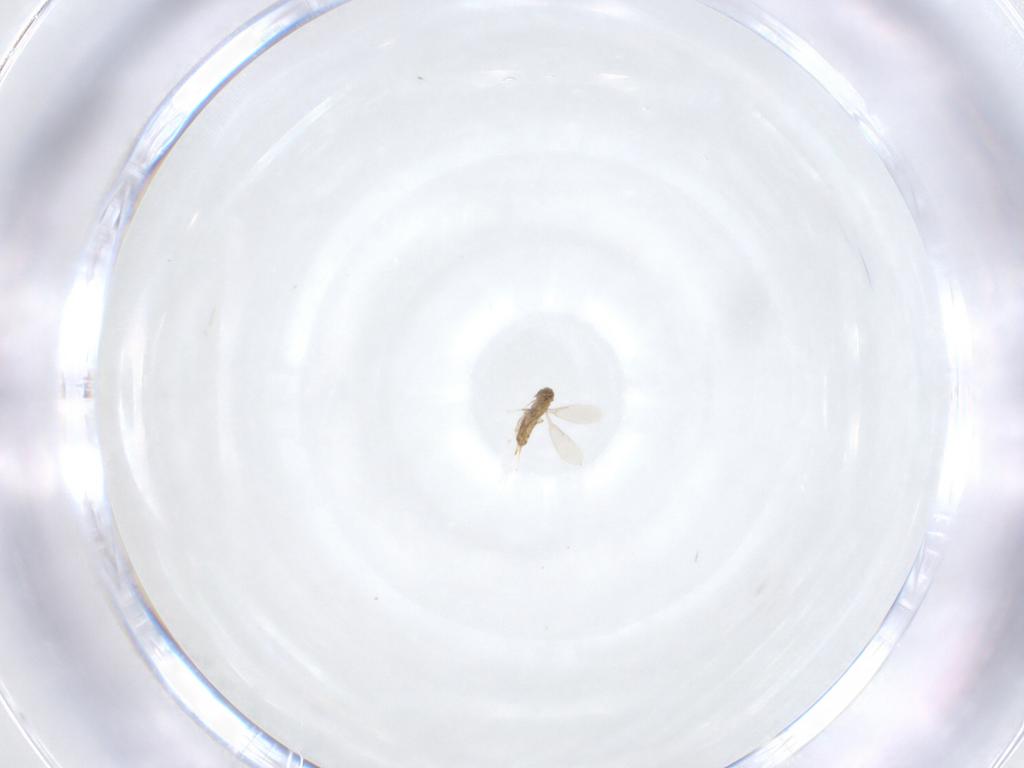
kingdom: Animalia
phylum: Arthropoda
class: Insecta
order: Hymenoptera
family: Aphelinidae
